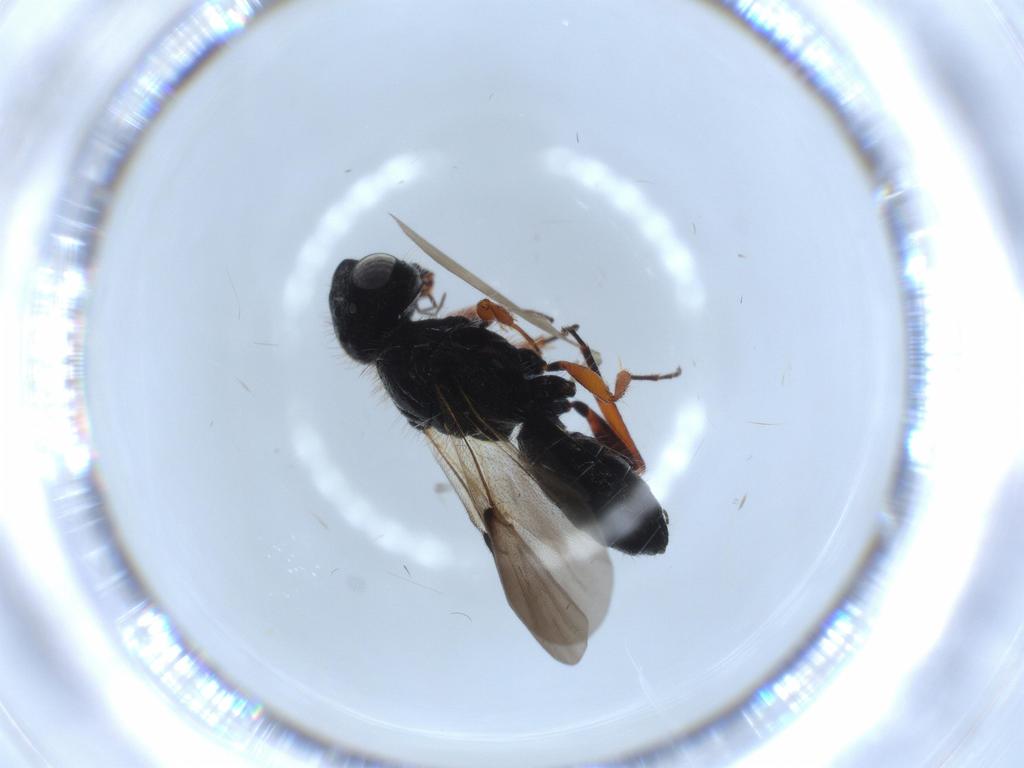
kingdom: Animalia
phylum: Arthropoda
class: Insecta
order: Hymenoptera
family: Scelionidae
